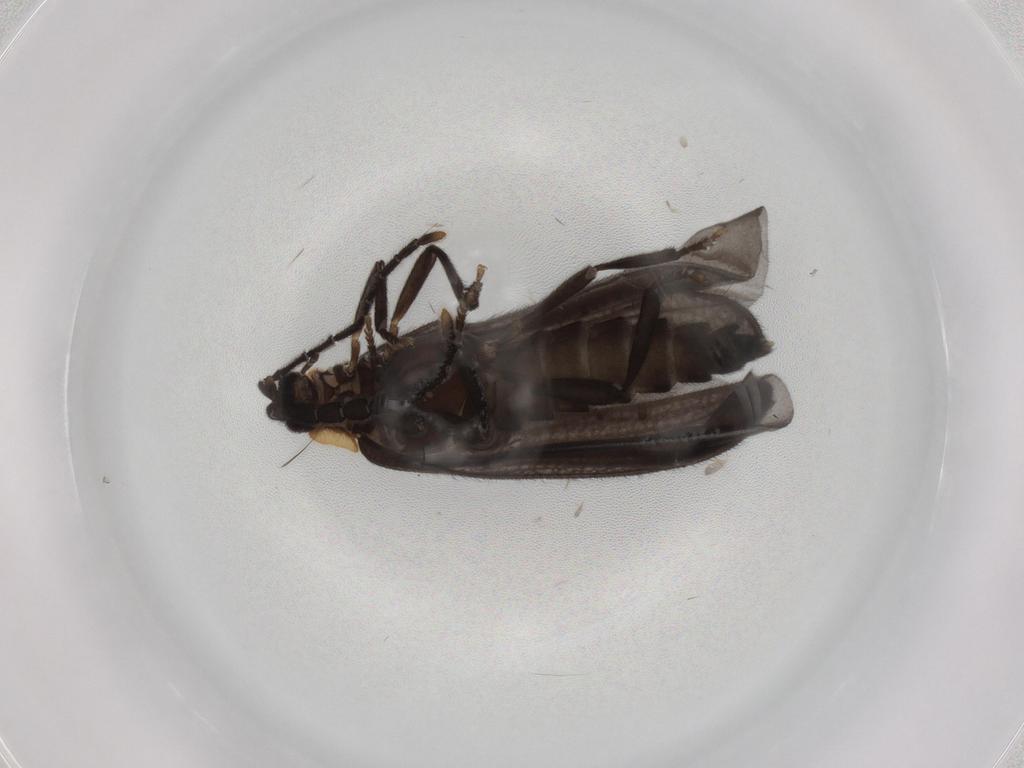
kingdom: Animalia
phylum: Arthropoda
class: Insecta
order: Coleoptera
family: Lycidae
